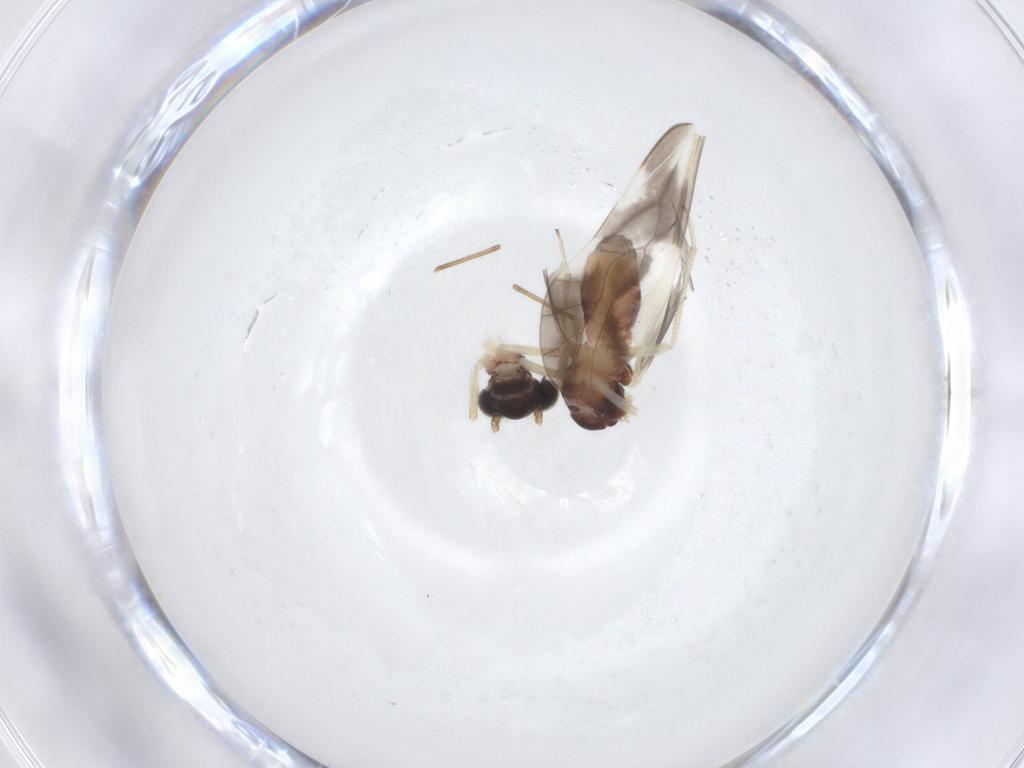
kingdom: Animalia
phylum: Arthropoda
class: Insecta
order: Psocodea
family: Caeciliusidae
